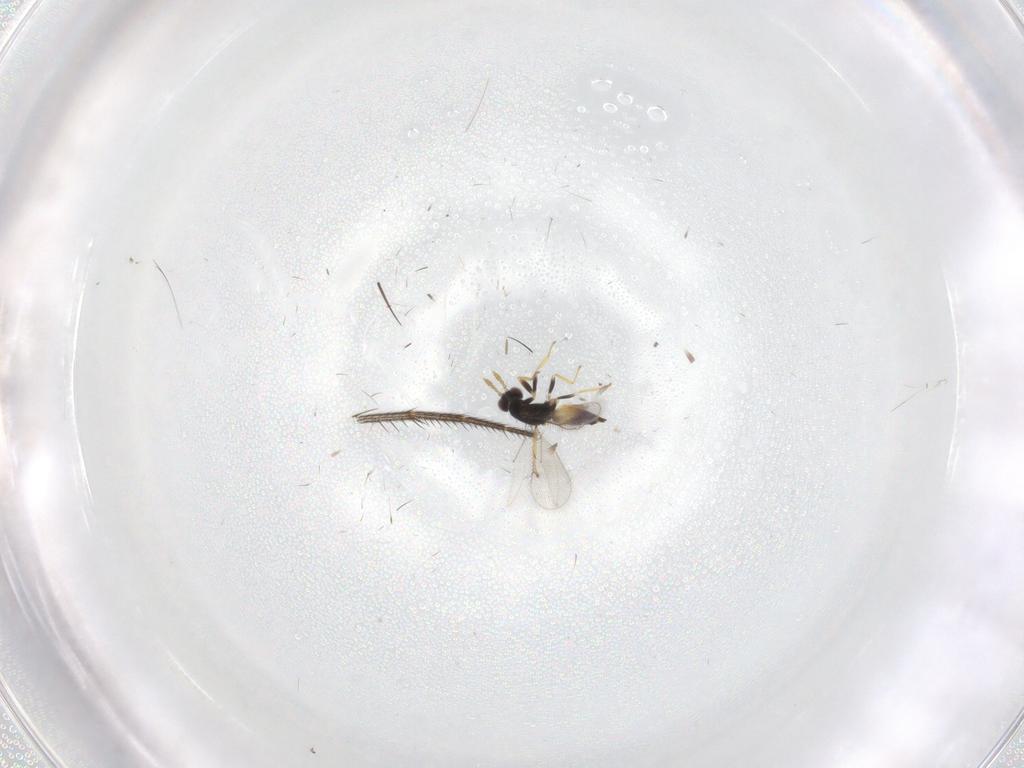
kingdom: Animalia
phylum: Arthropoda
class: Insecta
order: Hymenoptera
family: Eulophidae
